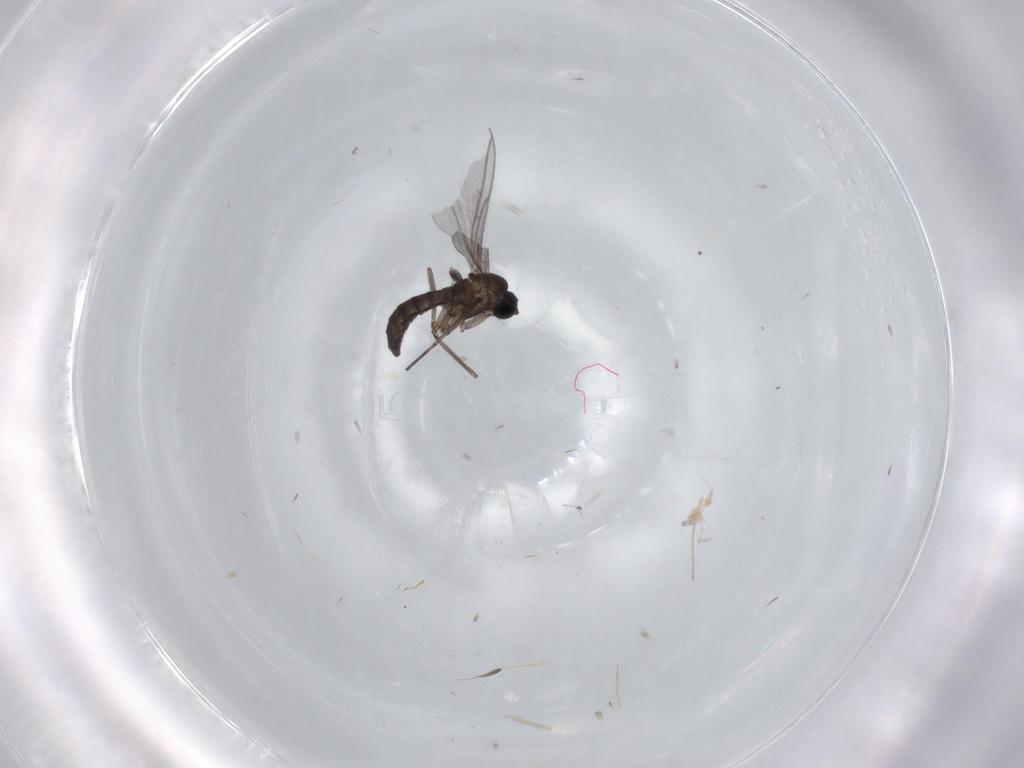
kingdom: Animalia
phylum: Arthropoda
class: Insecta
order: Diptera
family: Sciaridae
